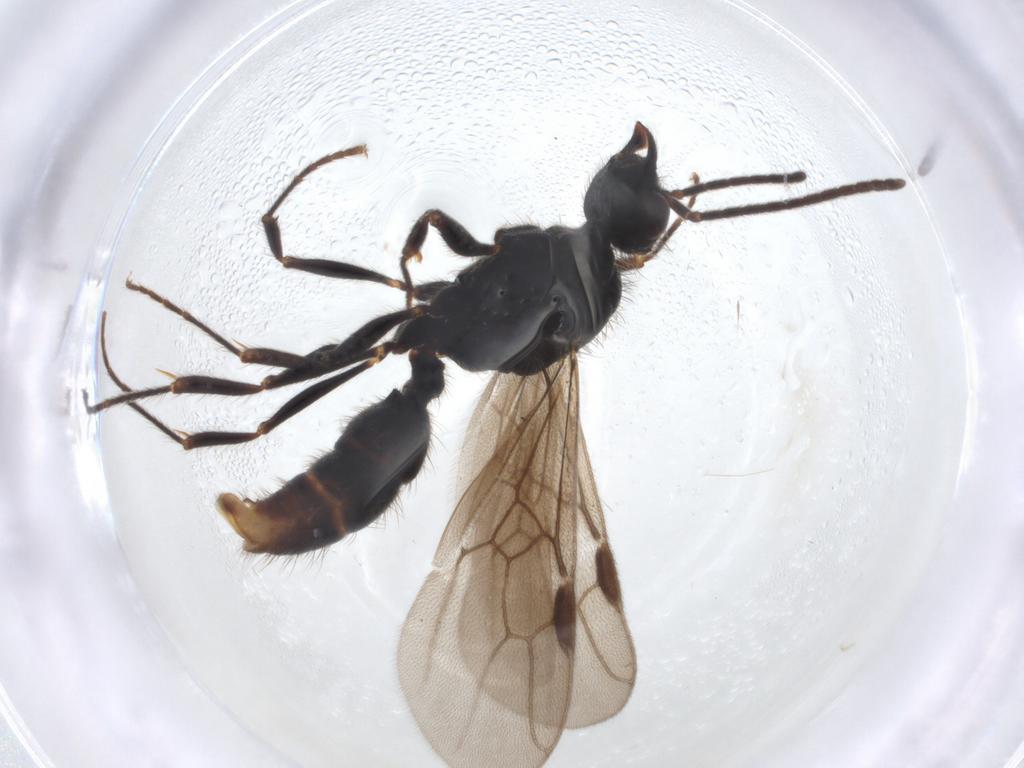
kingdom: Animalia
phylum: Arthropoda
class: Insecta
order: Hymenoptera
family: Formicidae
